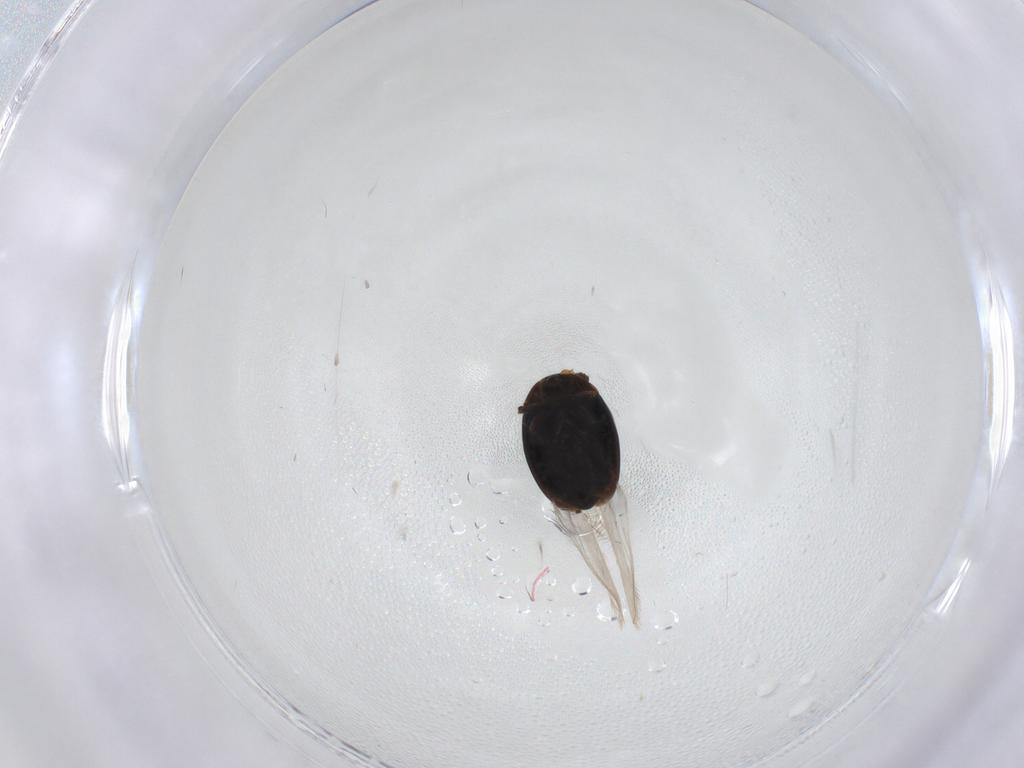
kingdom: Animalia
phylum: Arthropoda
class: Insecta
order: Coleoptera
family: Corylophidae
